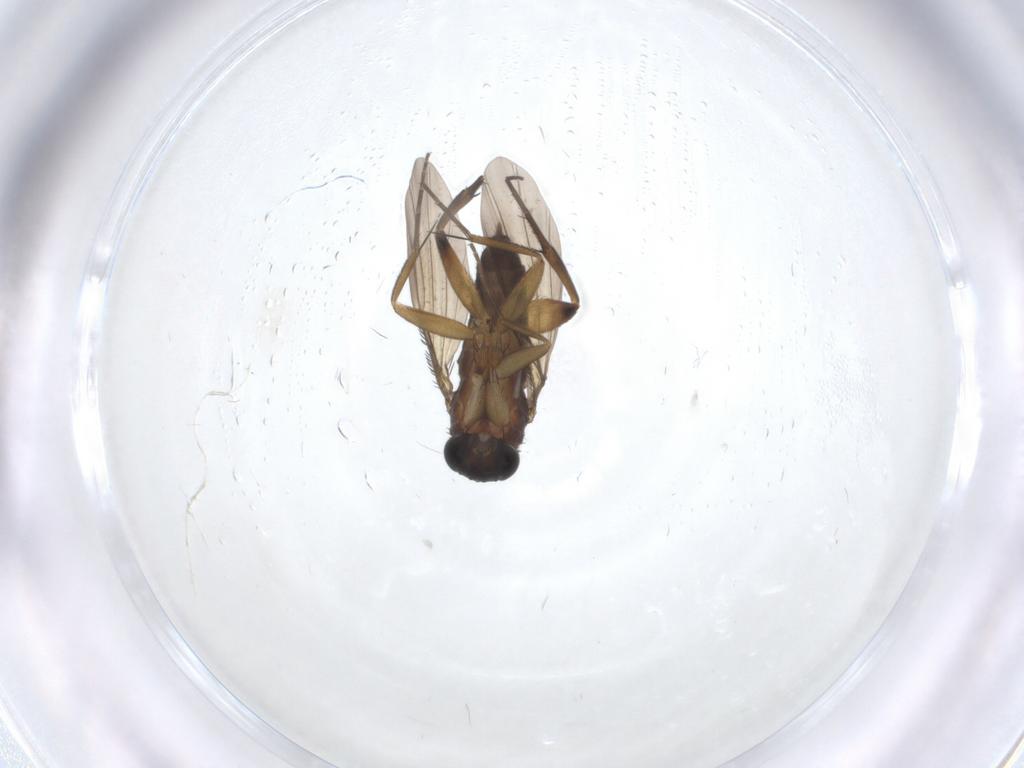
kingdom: Animalia
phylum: Arthropoda
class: Insecta
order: Diptera
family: Phoridae
